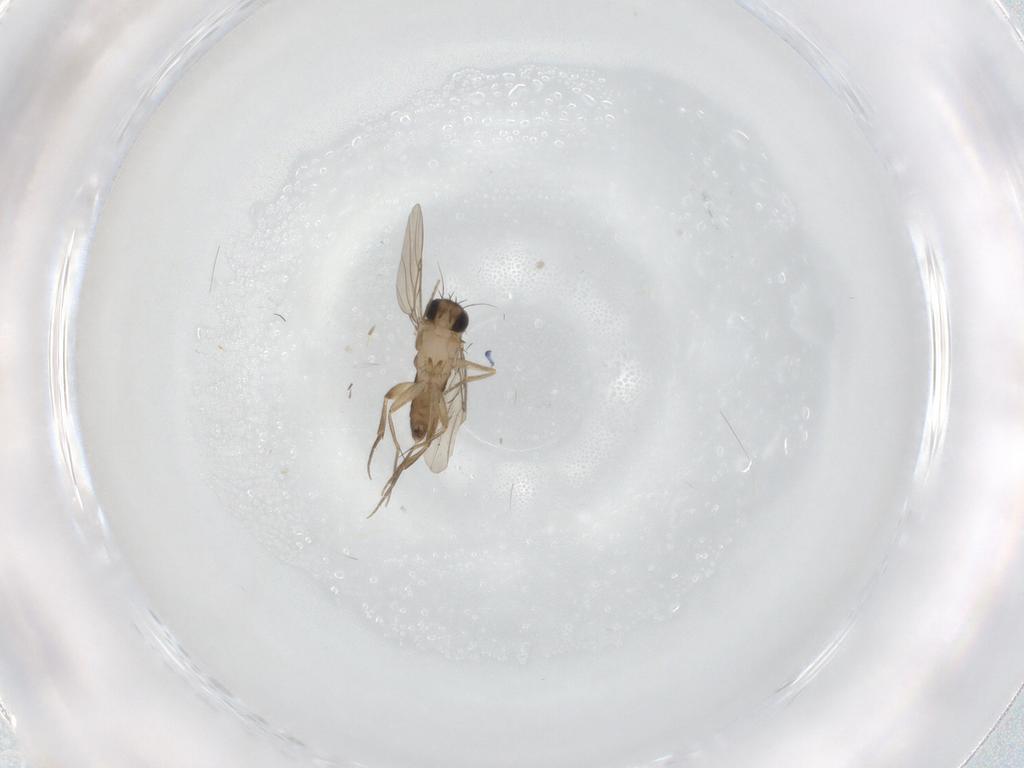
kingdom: Animalia
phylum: Arthropoda
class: Insecta
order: Diptera
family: Phoridae
